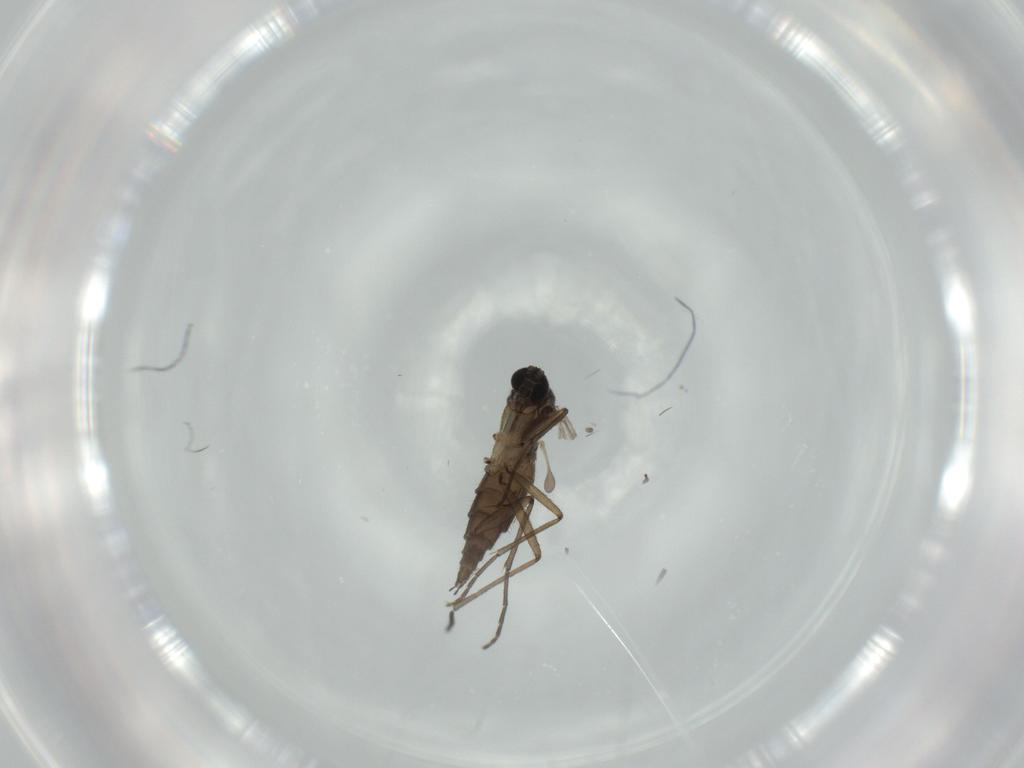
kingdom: Animalia
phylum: Arthropoda
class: Insecta
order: Diptera
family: Sciaridae
